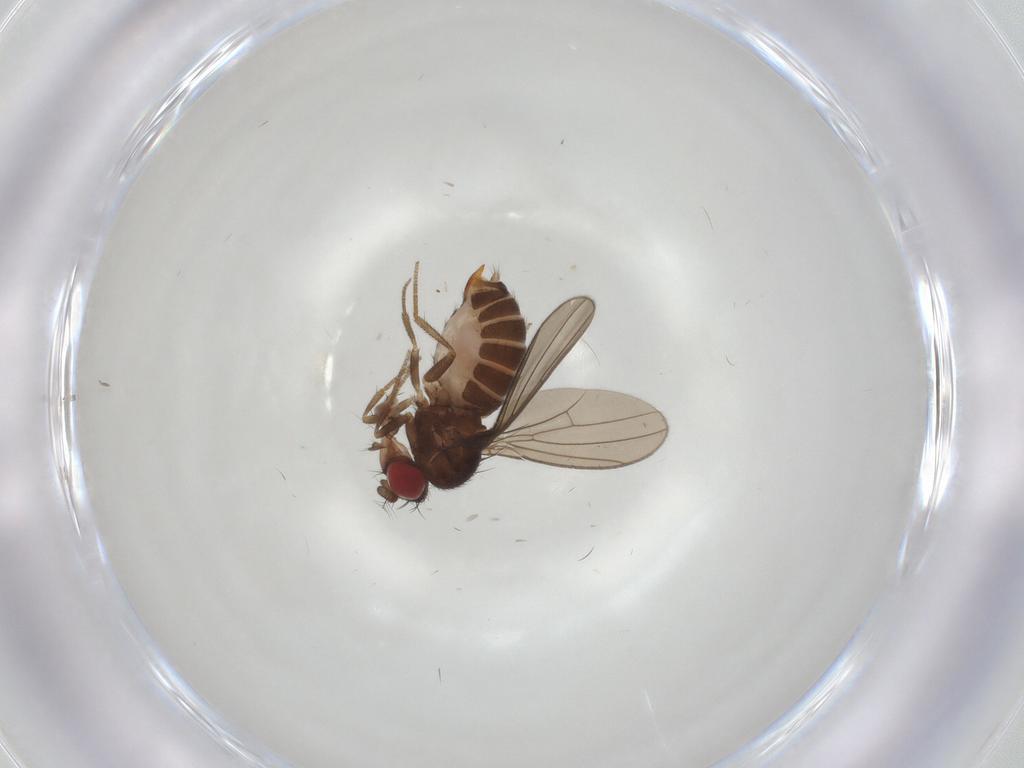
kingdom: Animalia
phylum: Arthropoda
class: Insecta
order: Diptera
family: Drosophilidae
